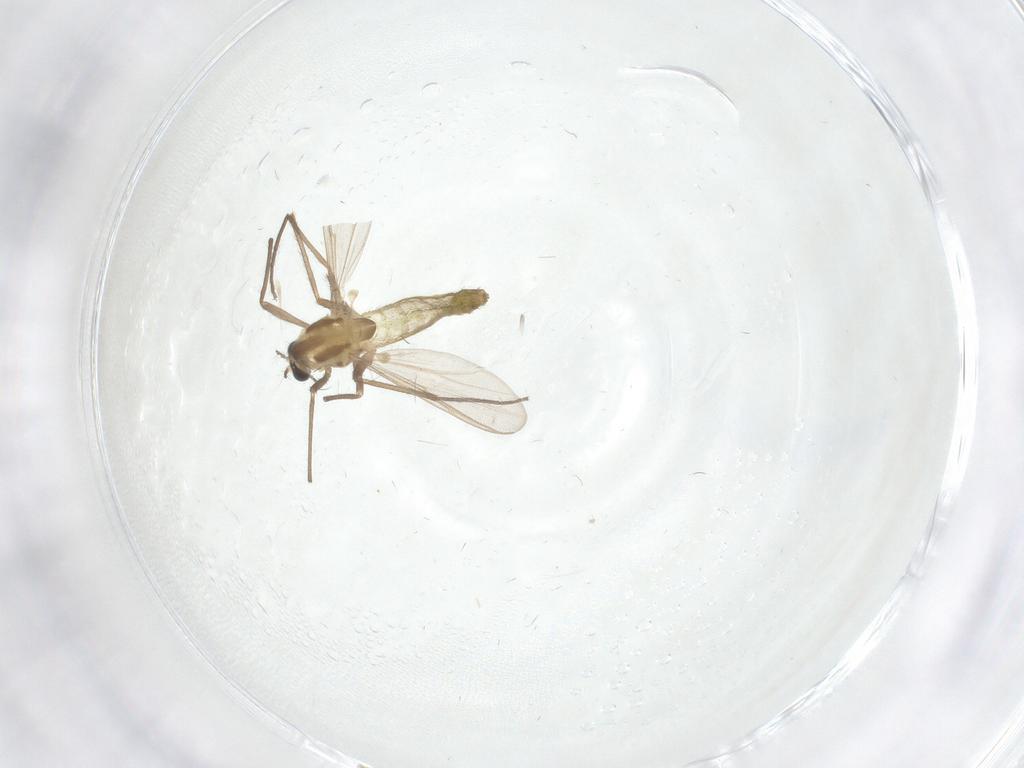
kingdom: Animalia
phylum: Arthropoda
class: Insecta
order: Diptera
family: Chironomidae
